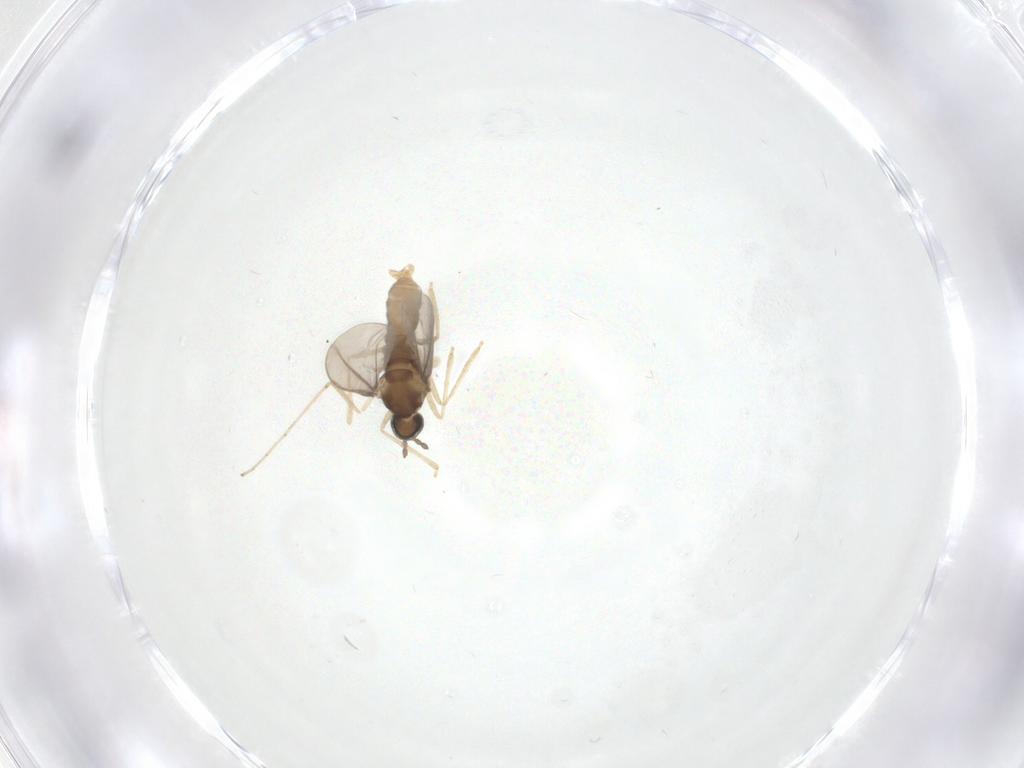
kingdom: Animalia
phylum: Arthropoda
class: Insecta
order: Diptera
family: Cecidomyiidae
